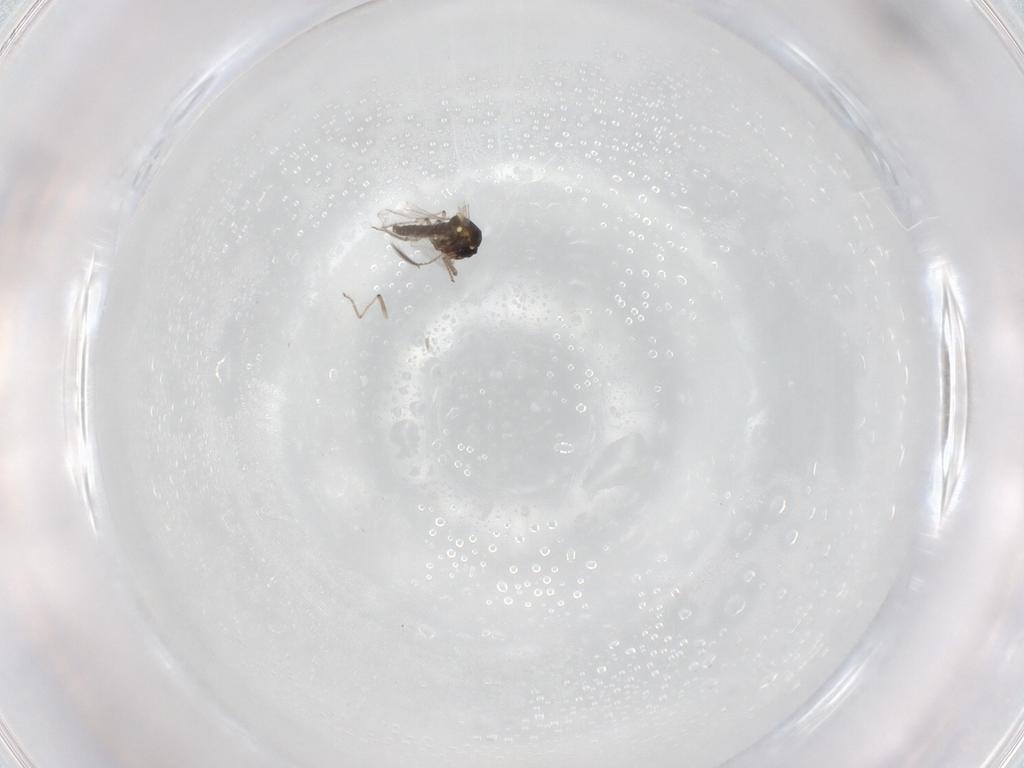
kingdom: Animalia
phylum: Arthropoda
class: Insecta
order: Diptera
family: Ceratopogonidae
